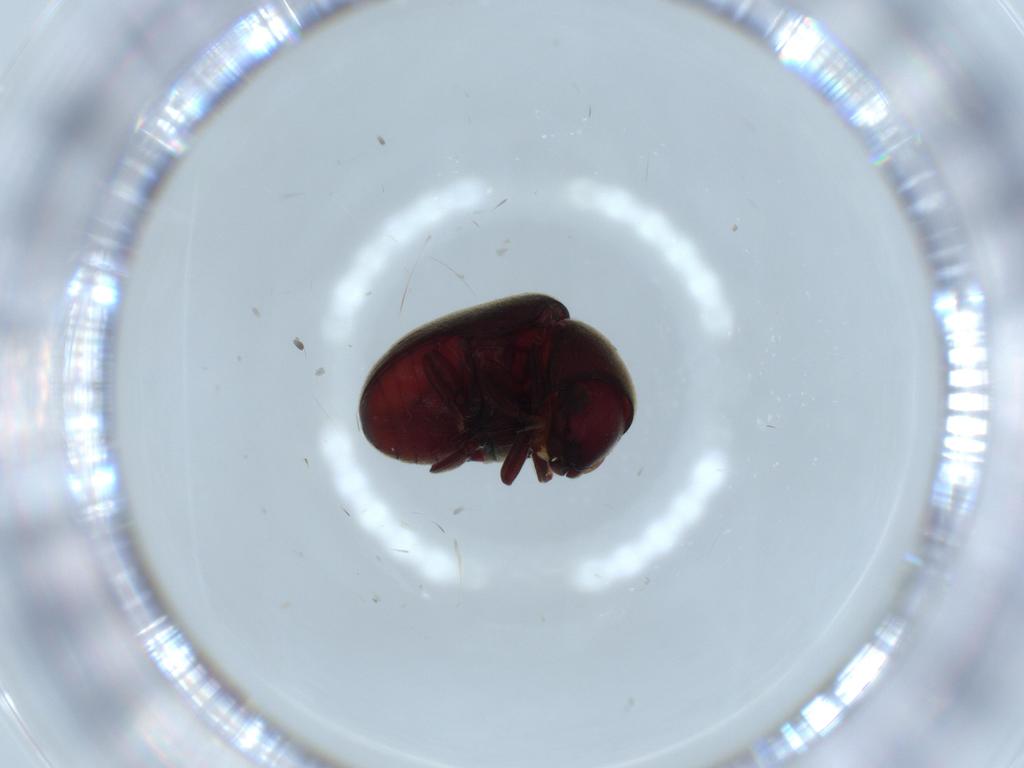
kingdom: Animalia
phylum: Arthropoda
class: Insecta
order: Coleoptera
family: Ptinidae
